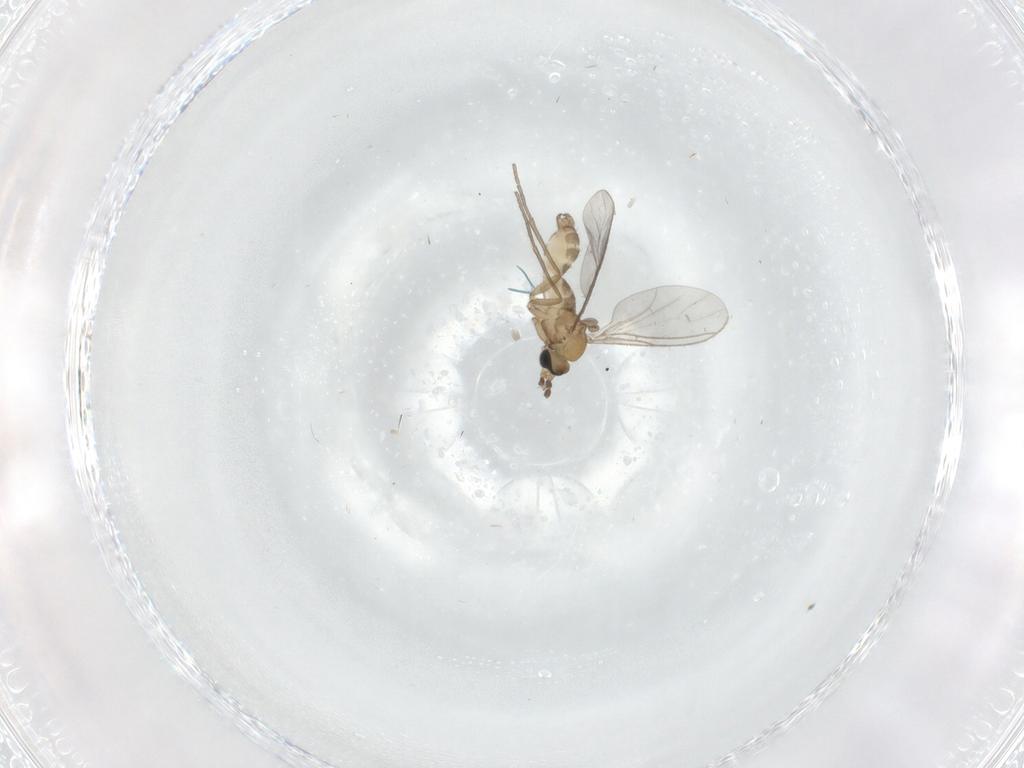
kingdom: Animalia
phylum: Arthropoda
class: Insecta
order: Diptera
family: Sciaridae
